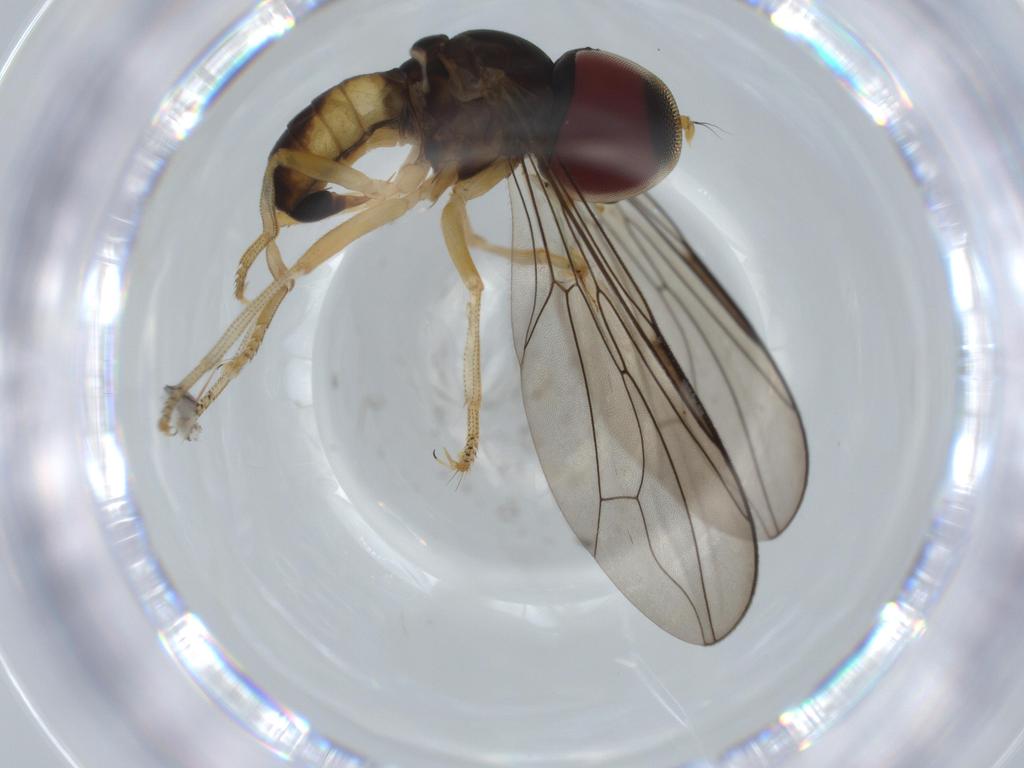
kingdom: Animalia
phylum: Arthropoda
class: Insecta
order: Diptera
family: Pipunculidae
